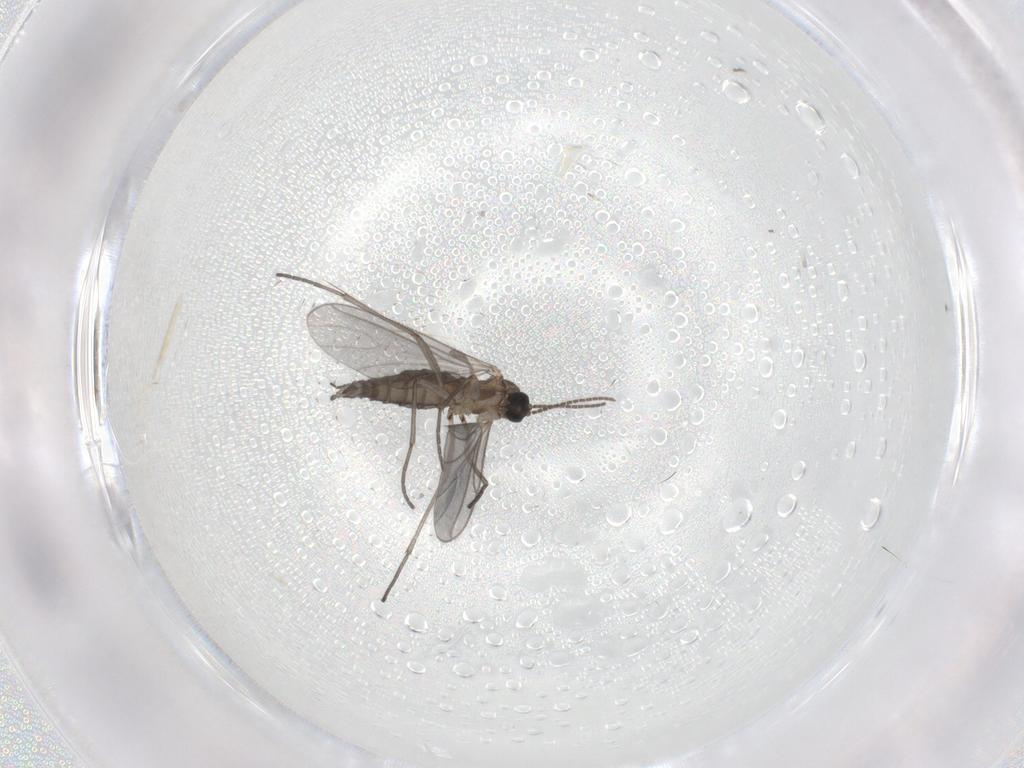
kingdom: Animalia
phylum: Arthropoda
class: Insecta
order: Diptera
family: Sciaridae
